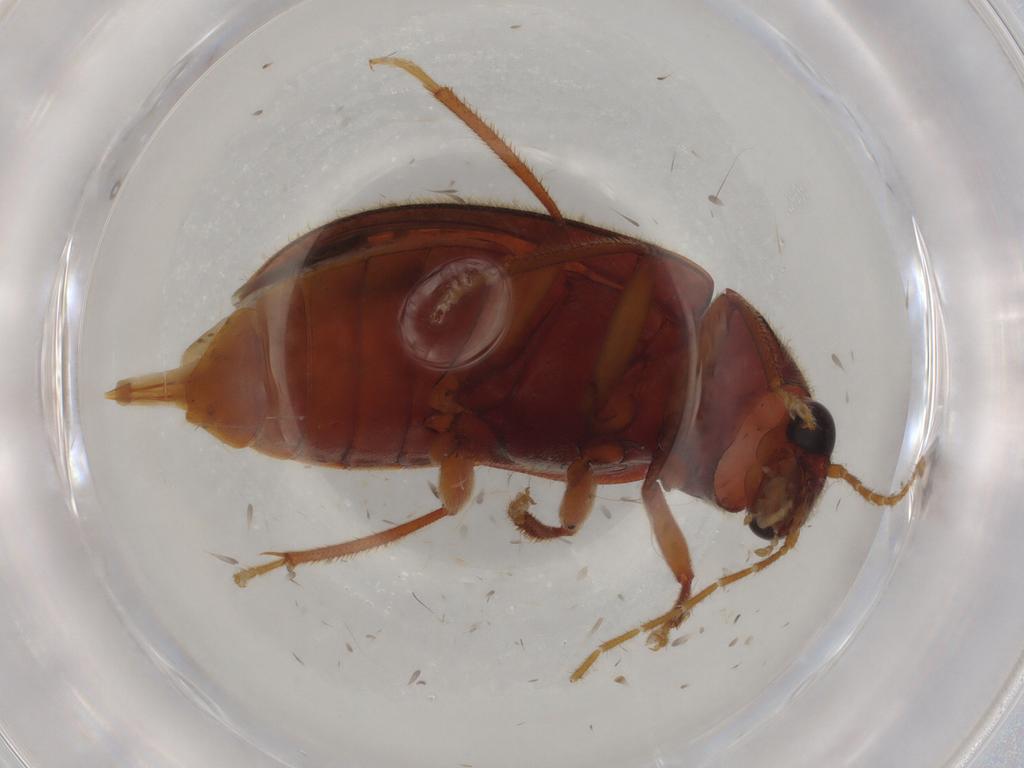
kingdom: Animalia
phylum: Arthropoda
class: Insecta
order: Coleoptera
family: Ptilodactylidae
